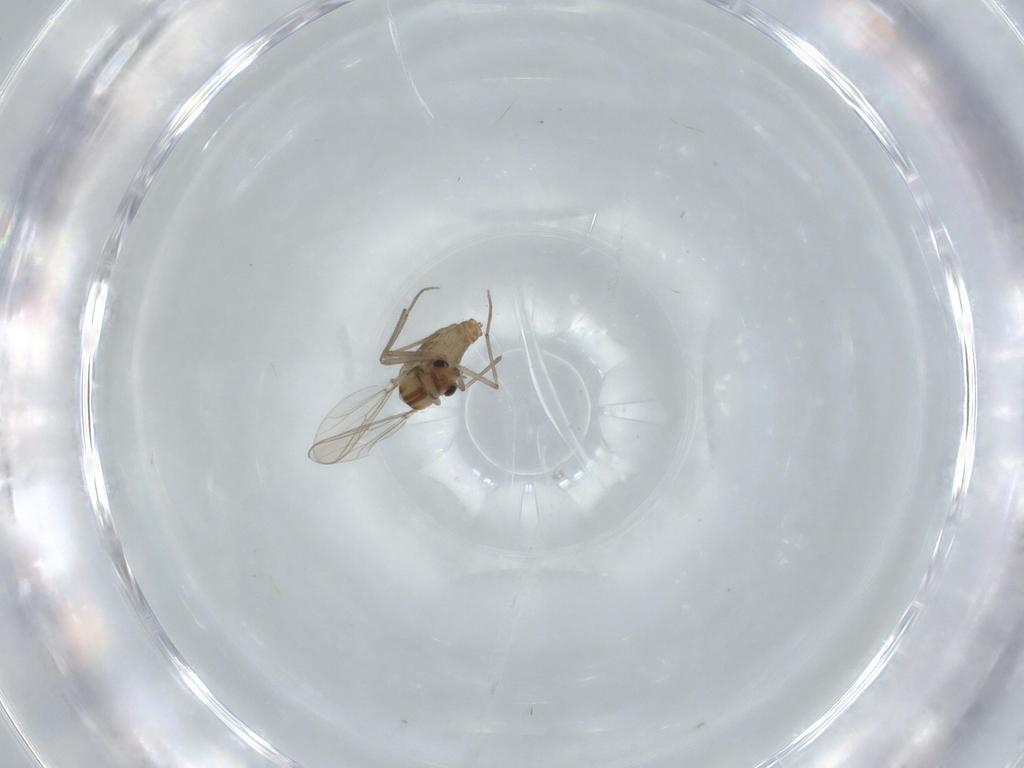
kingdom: Animalia
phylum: Arthropoda
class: Insecta
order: Diptera
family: Chironomidae
